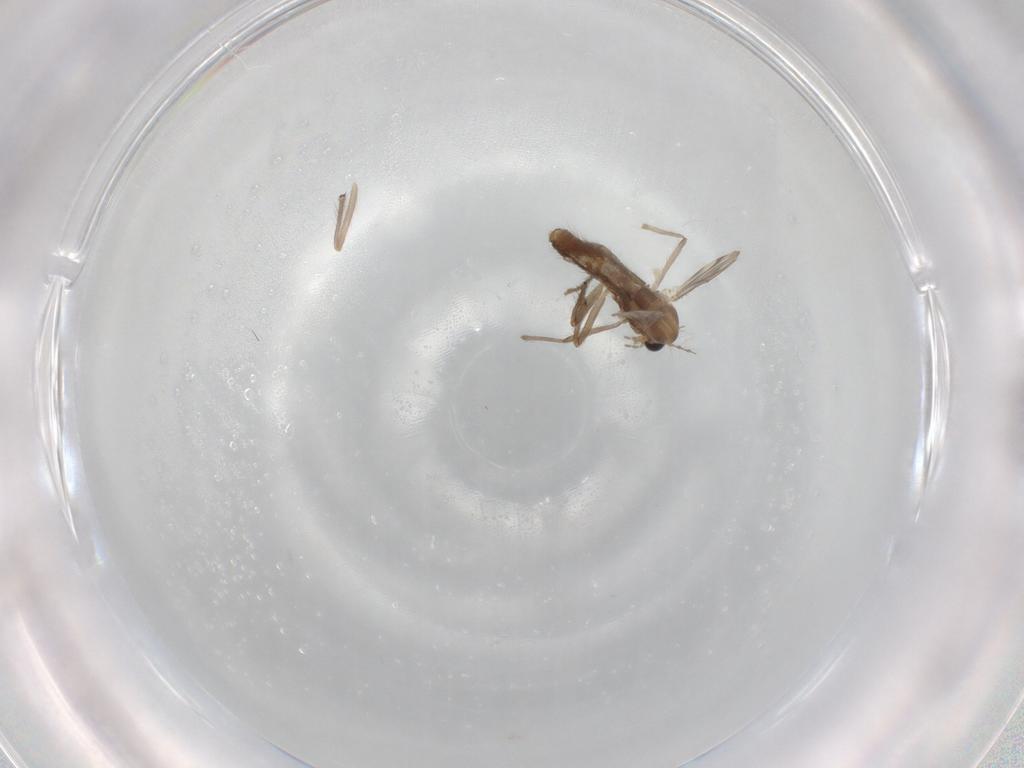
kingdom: Animalia
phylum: Arthropoda
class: Insecta
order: Diptera
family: Chironomidae
